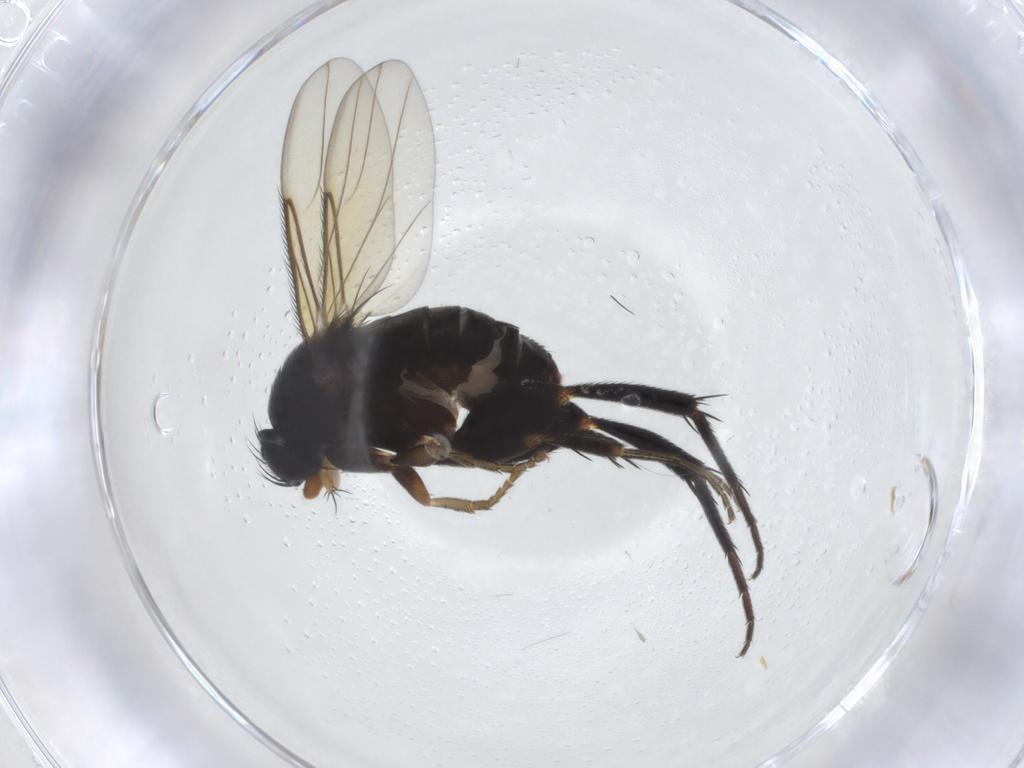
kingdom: Animalia
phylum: Arthropoda
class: Insecta
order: Diptera
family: Phoridae
